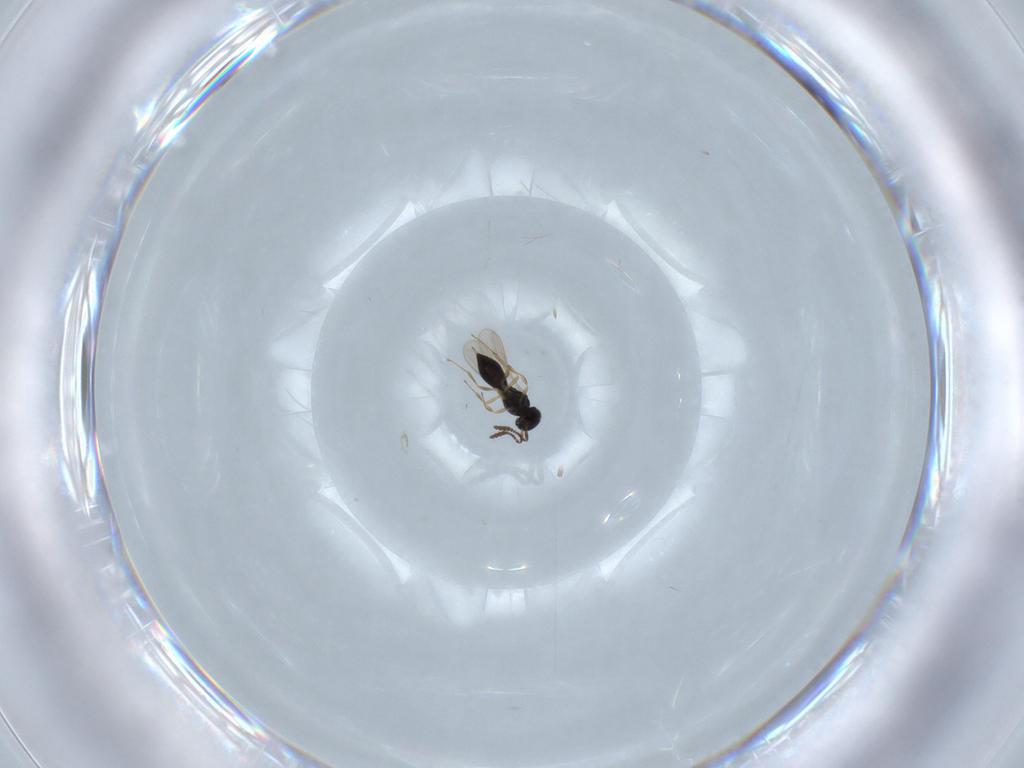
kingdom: Animalia
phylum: Arthropoda
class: Insecta
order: Hymenoptera
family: Scelionidae
